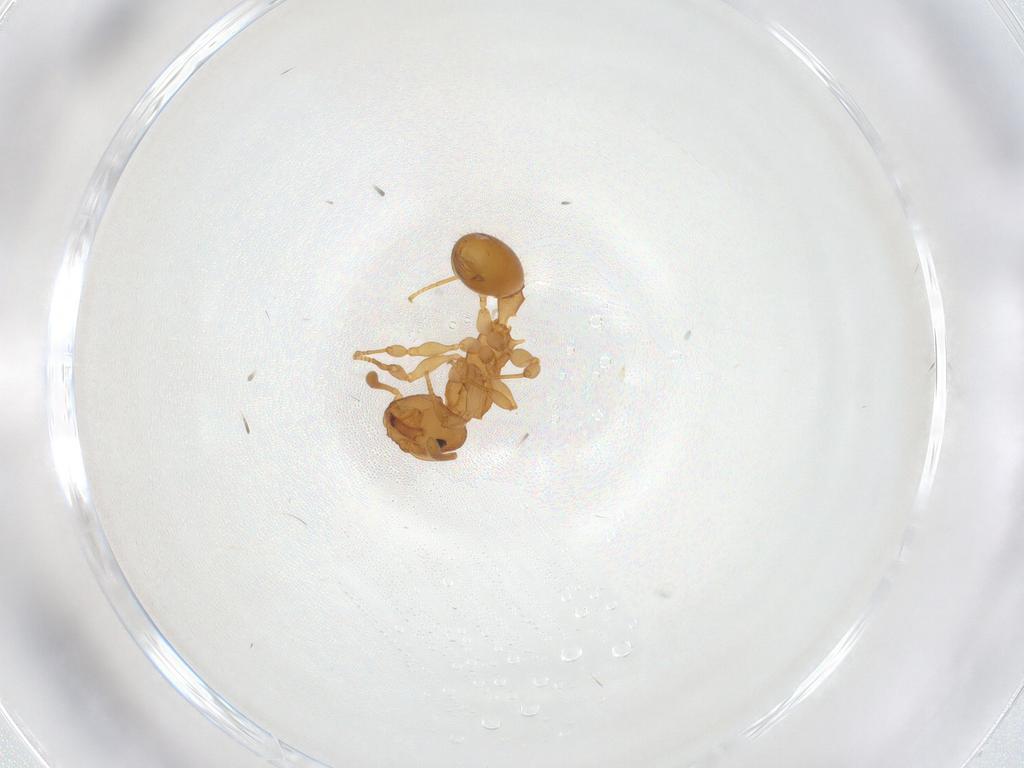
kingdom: Animalia
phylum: Arthropoda
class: Insecta
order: Hymenoptera
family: Formicidae
